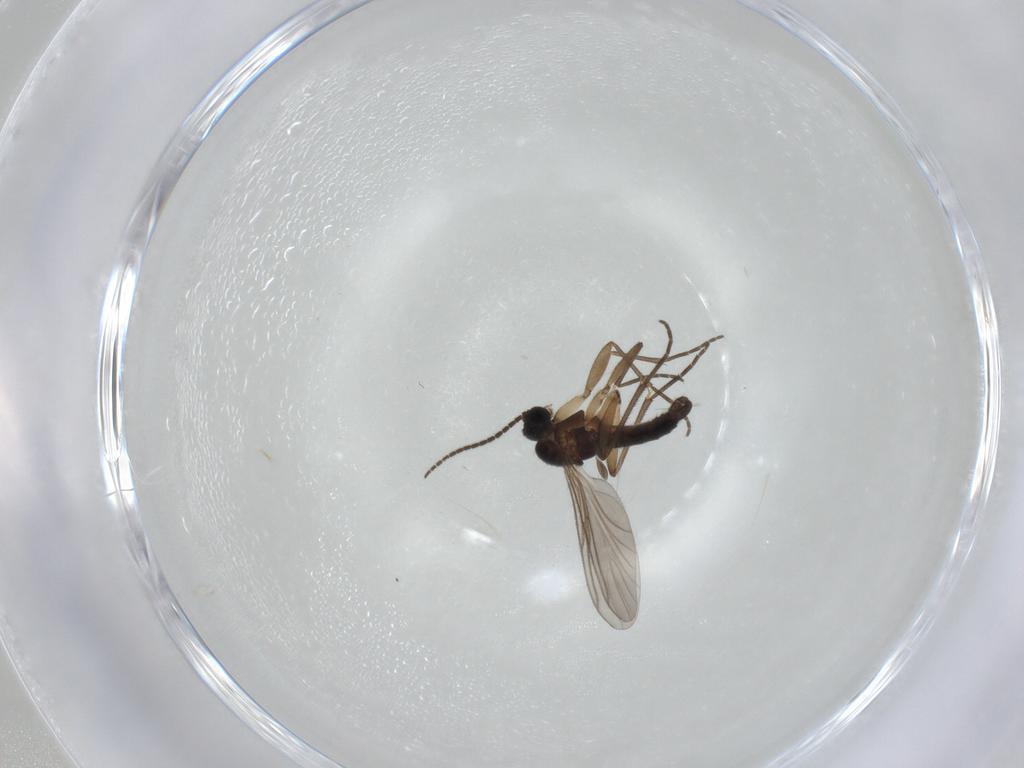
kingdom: Animalia
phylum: Arthropoda
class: Insecta
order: Diptera
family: Sciaridae
